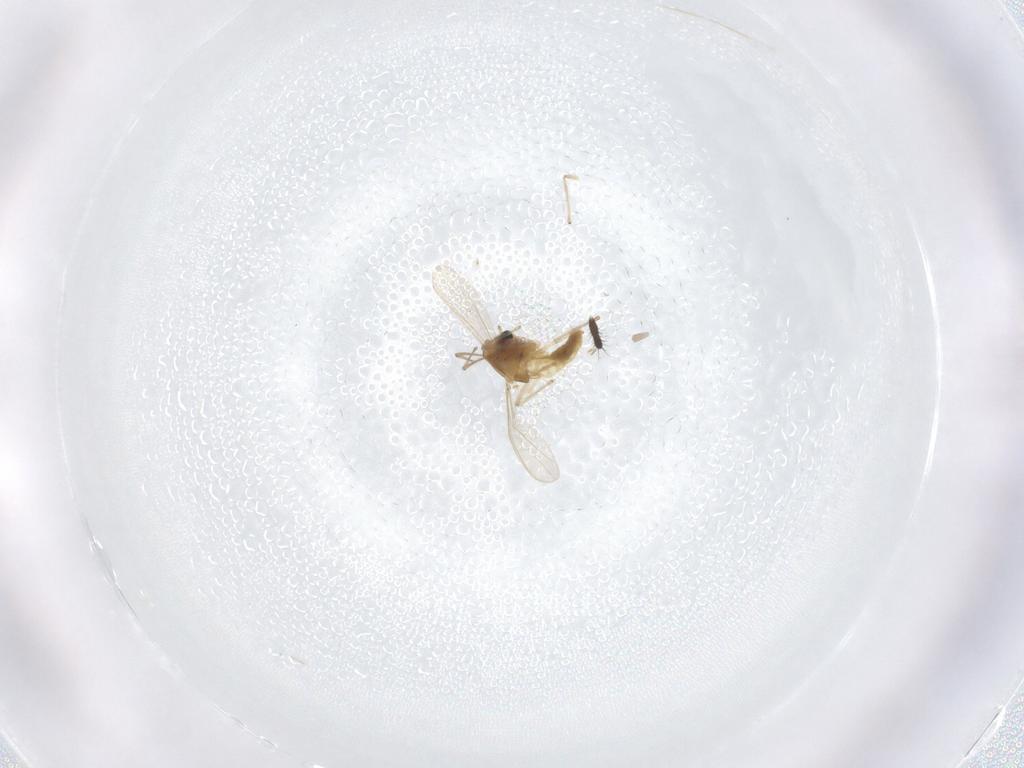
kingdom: Animalia
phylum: Arthropoda
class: Insecta
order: Diptera
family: Chironomidae
